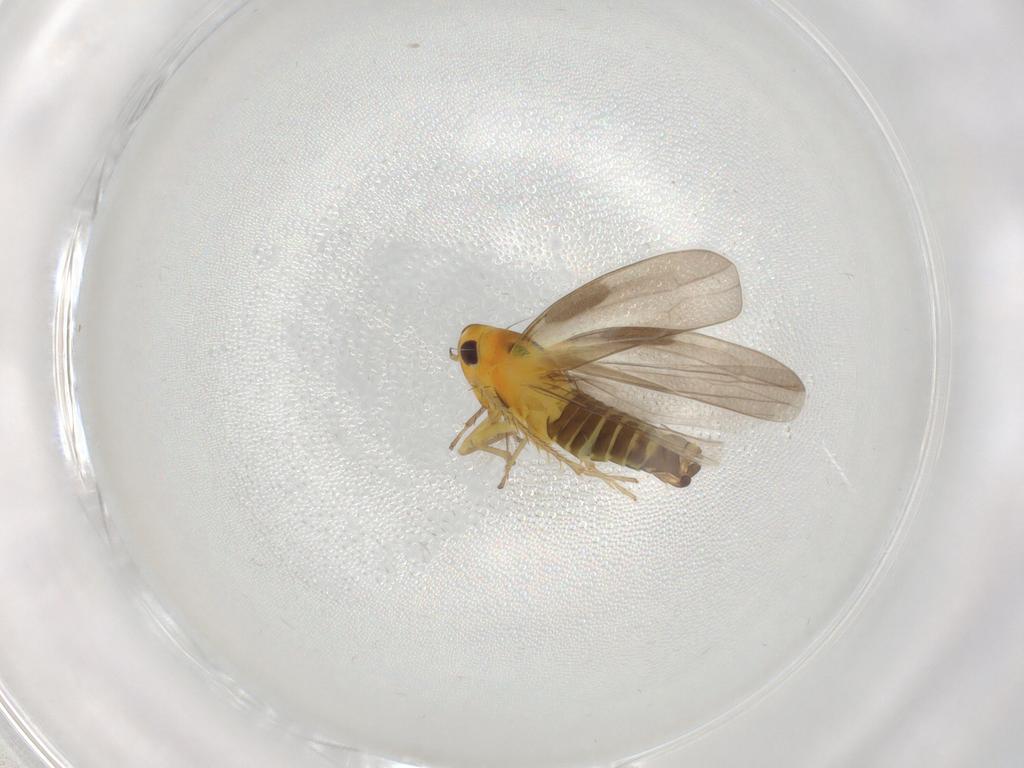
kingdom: Animalia
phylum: Arthropoda
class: Insecta
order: Hemiptera
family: Cicadellidae
